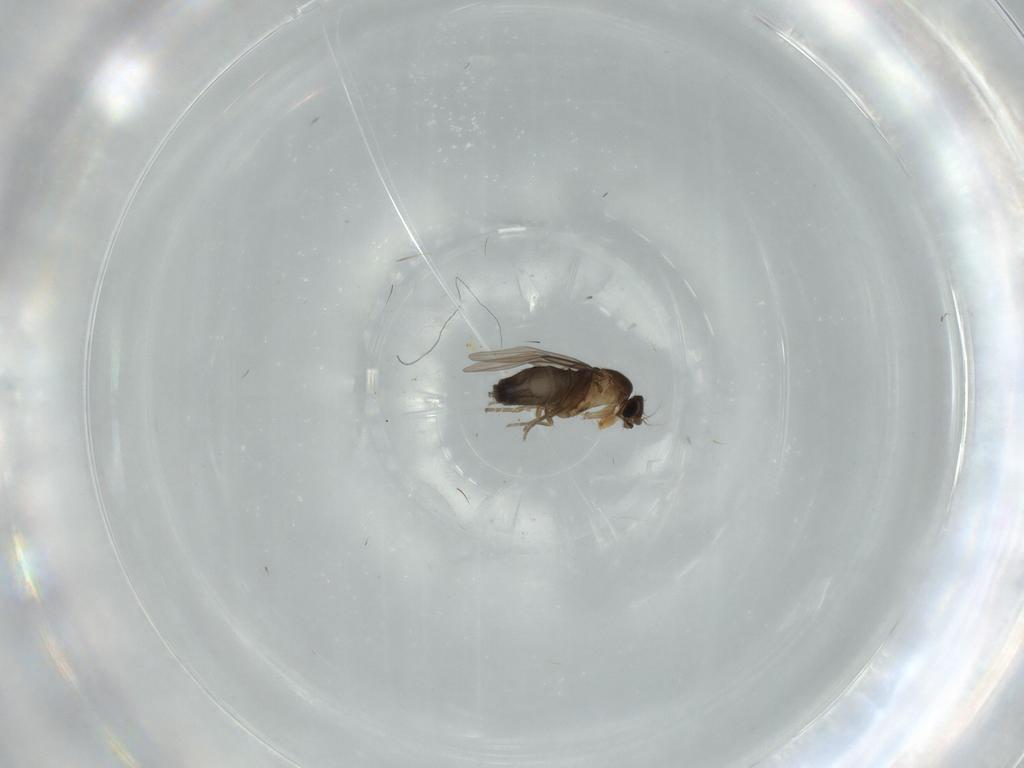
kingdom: Animalia
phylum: Arthropoda
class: Insecta
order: Diptera
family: Phoridae
